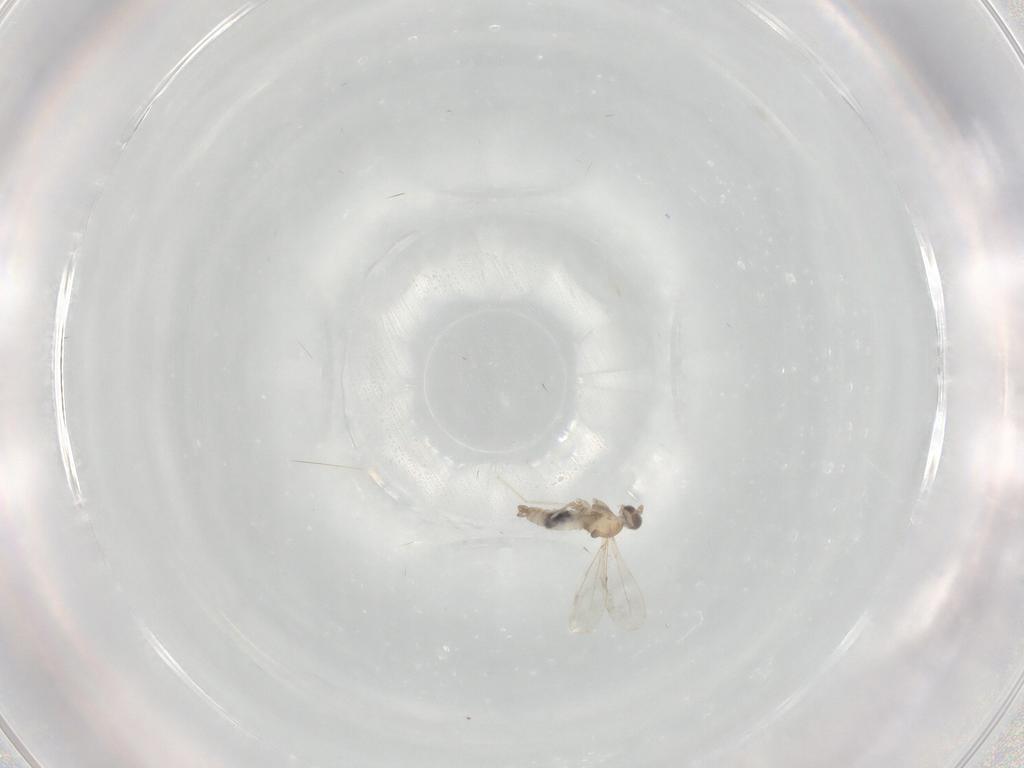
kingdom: Animalia
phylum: Arthropoda
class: Insecta
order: Diptera
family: Cecidomyiidae
